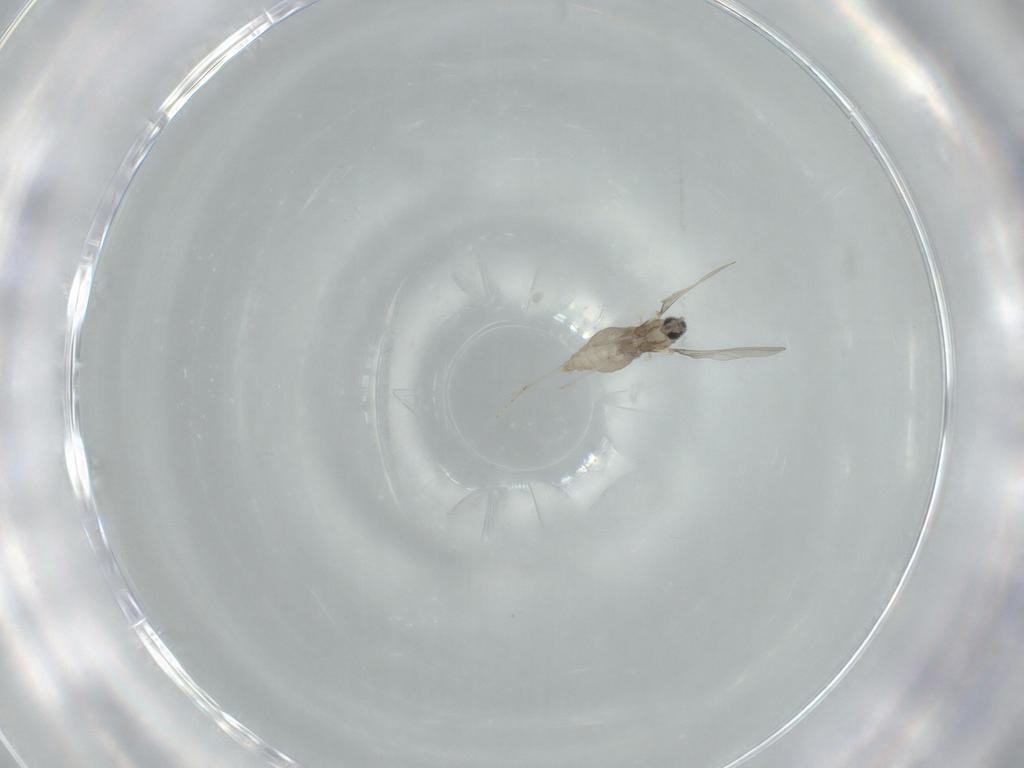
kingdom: Animalia
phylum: Arthropoda
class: Insecta
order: Diptera
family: Cecidomyiidae
